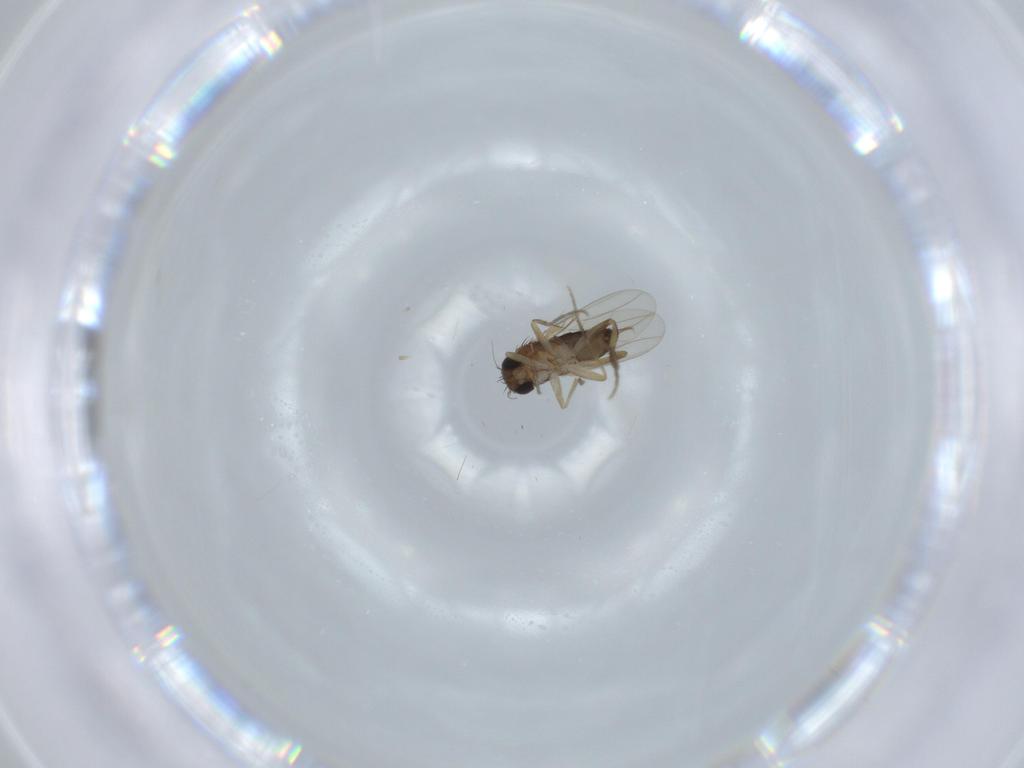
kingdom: Animalia
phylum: Arthropoda
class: Insecta
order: Diptera
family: Phoridae
